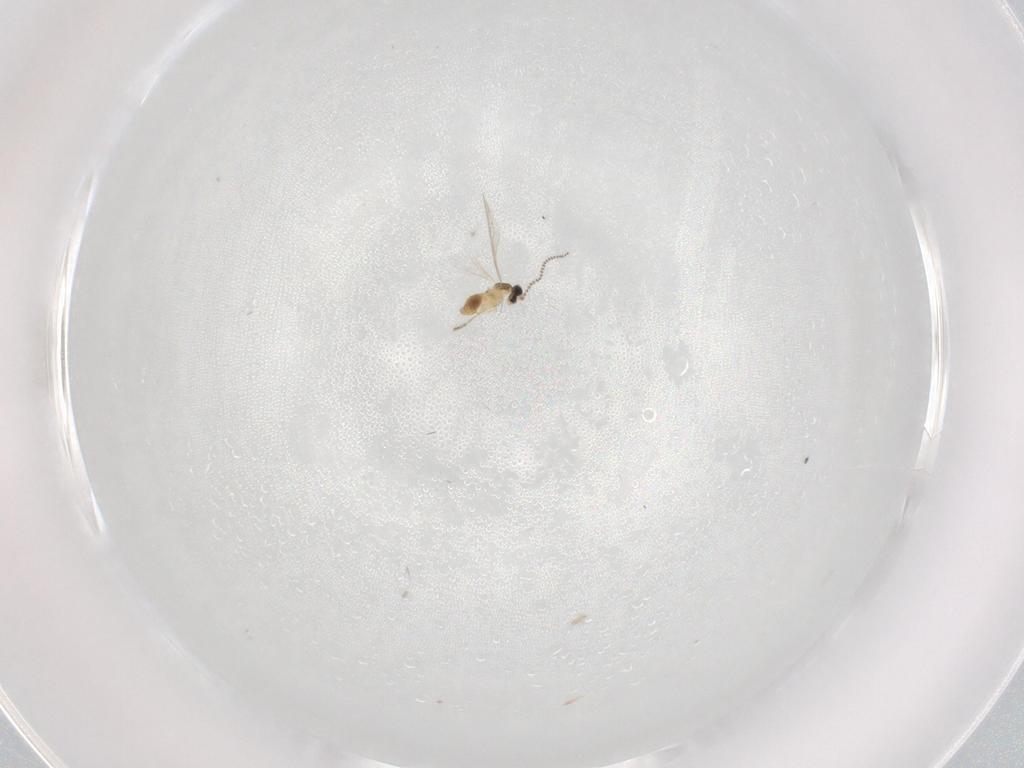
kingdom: Animalia
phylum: Arthropoda
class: Insecta
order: Diptera
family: Cecidomyiidae
